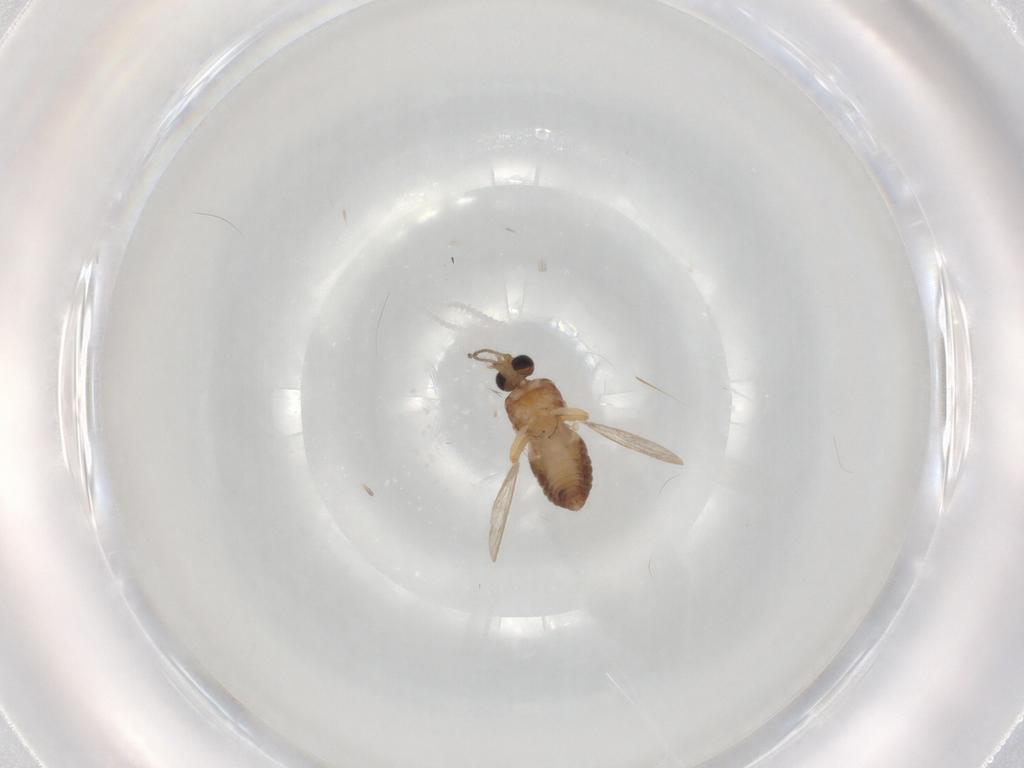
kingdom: Animalia
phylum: Arthropoda
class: Insecta
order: Diptera
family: Ceratopogonidae
